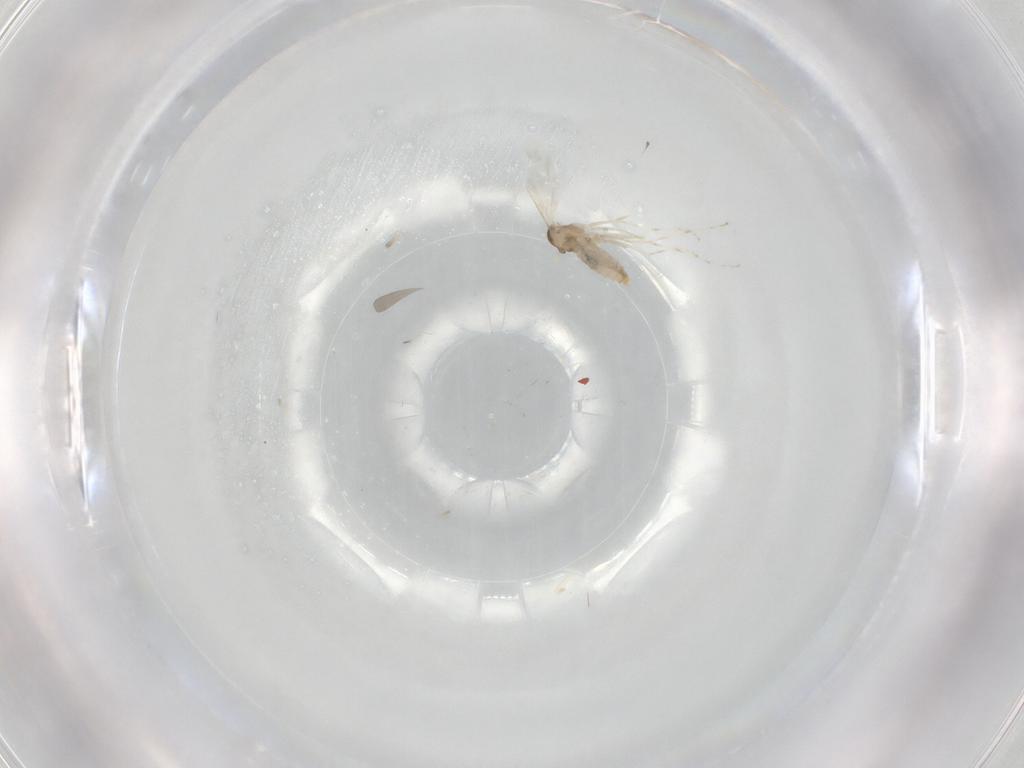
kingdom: Animalia
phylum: Arthropoda
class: Insecta
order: Diptera
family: Cecidomyiidae
